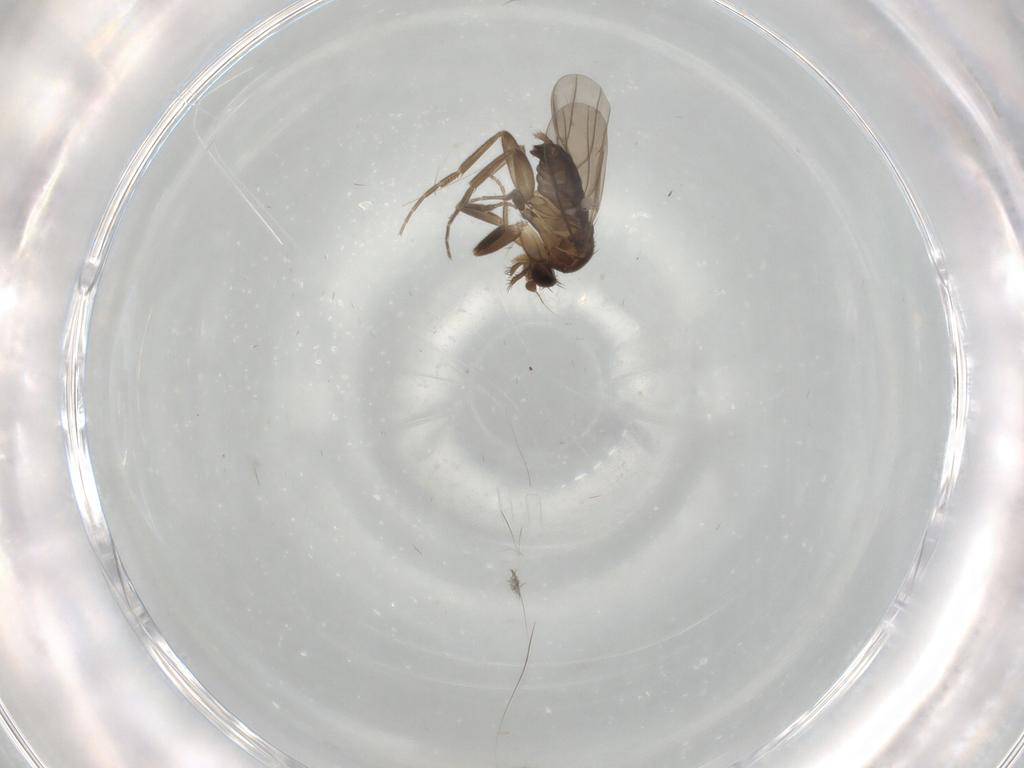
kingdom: Animalia
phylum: Arthropoda
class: Insecta
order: Diptera
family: Phoridae
